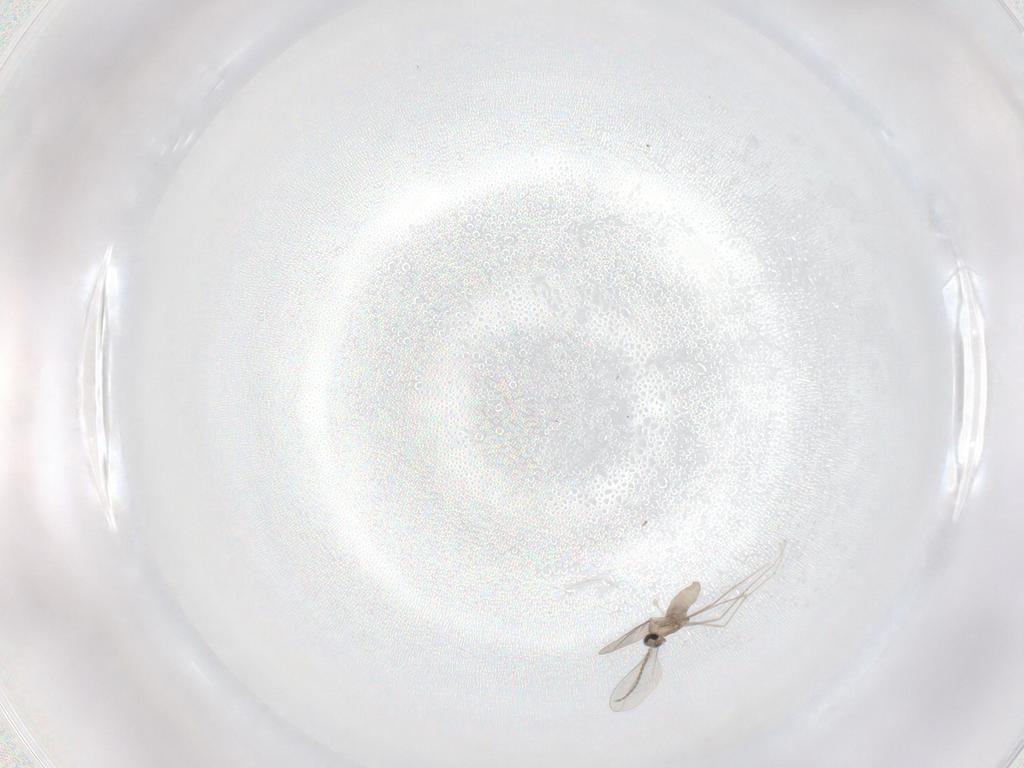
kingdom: Animalia
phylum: Arthropoda
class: Insecta
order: Diptera
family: Cecidomyiidae
